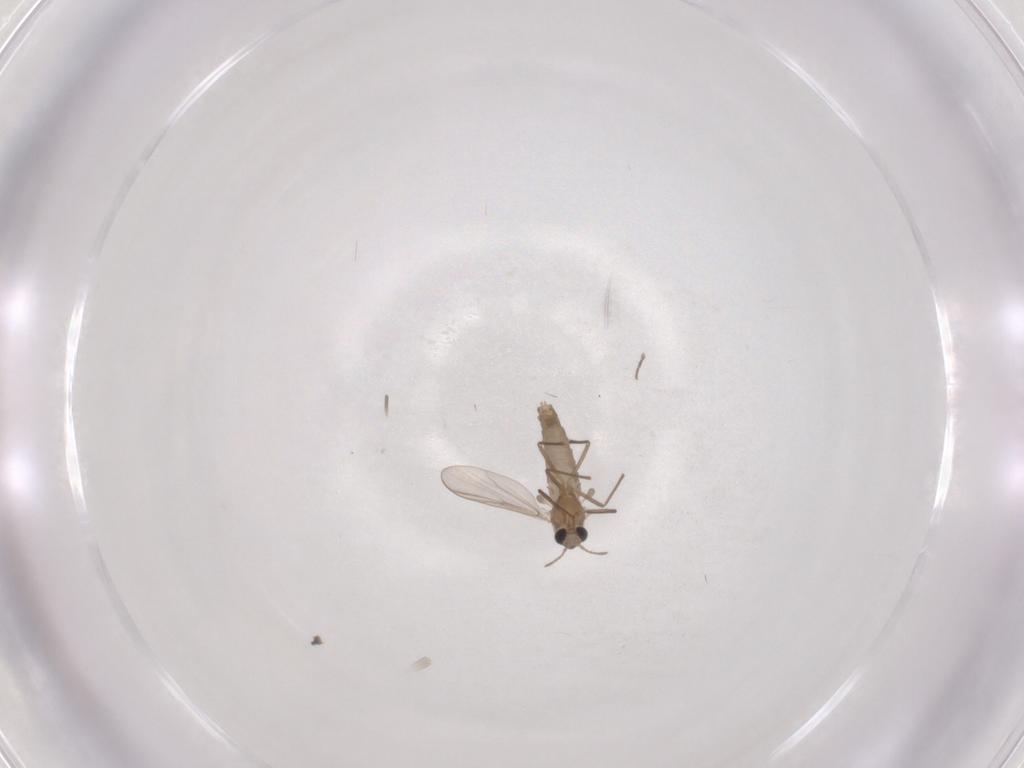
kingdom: Animalia
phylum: Arthropoda
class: Insecta
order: Diptera
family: Chironomidae
